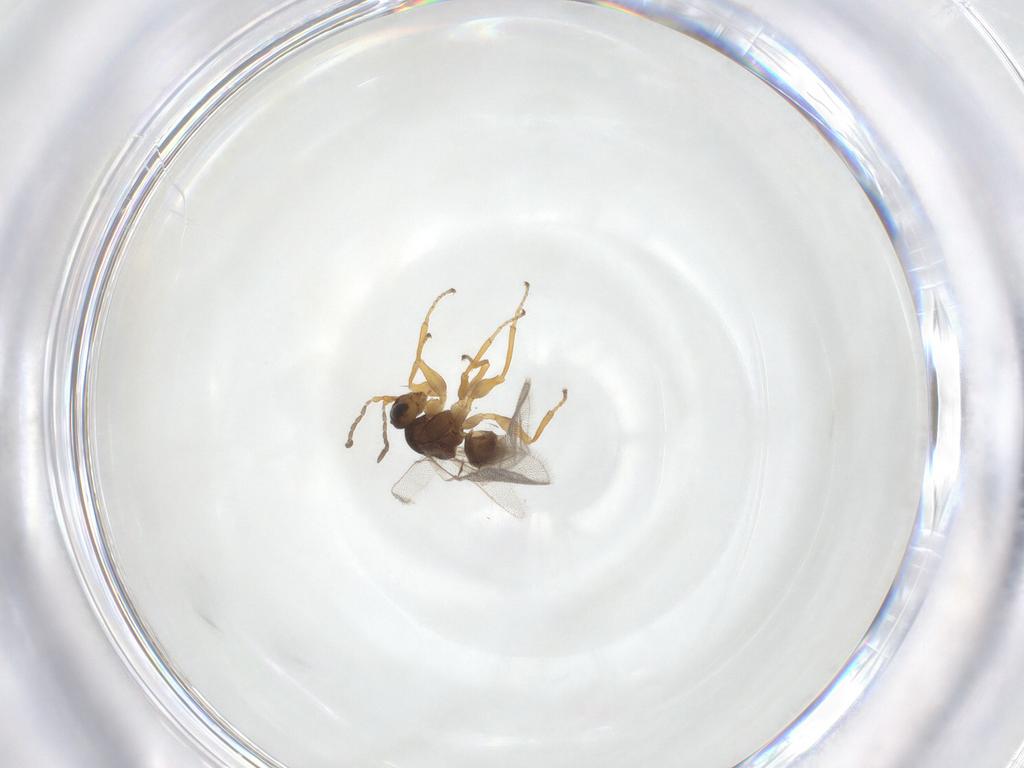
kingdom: Animalia
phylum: Arthropoda
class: Insecta
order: Hymenoptera
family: Cynipidae
